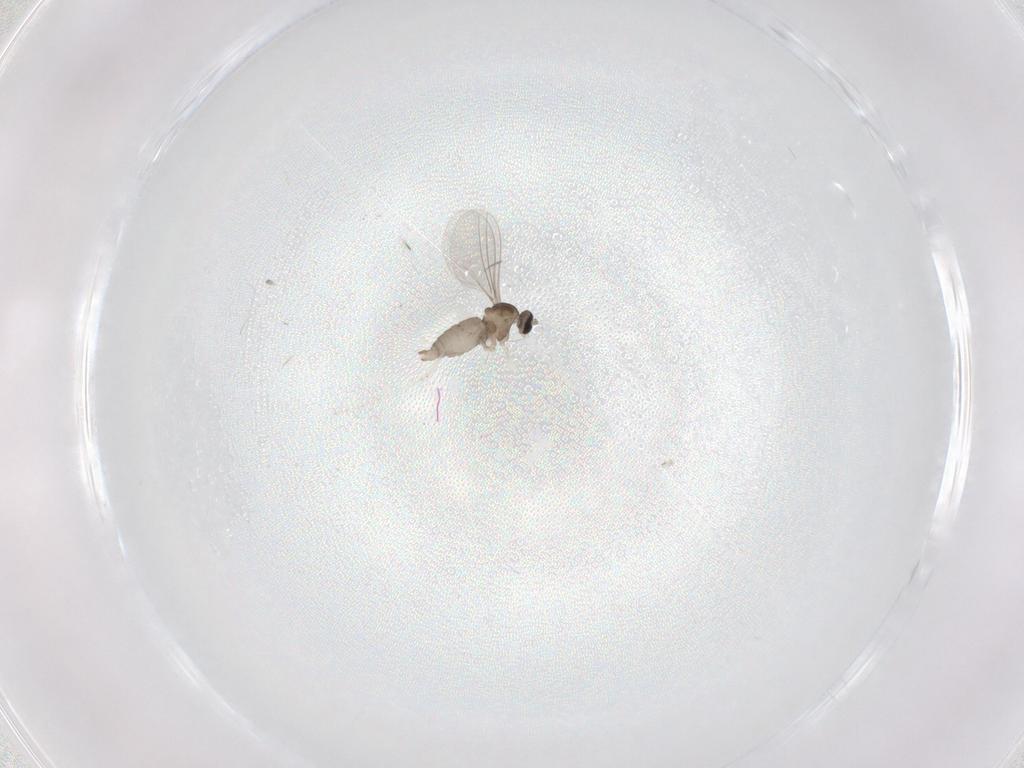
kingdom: Animalia
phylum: Arthropoda
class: Insecta
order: Diptera
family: Cecidomyiidae
